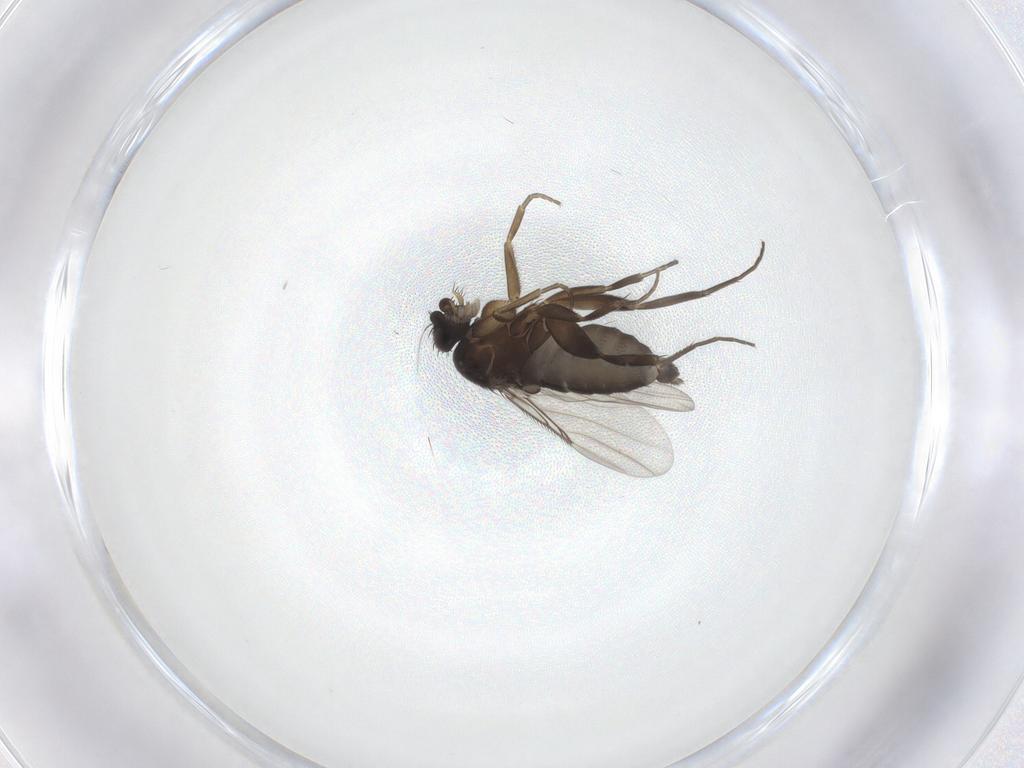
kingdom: Animalia
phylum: Arthropoda
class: Insecta
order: Diptera
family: Phoridae
